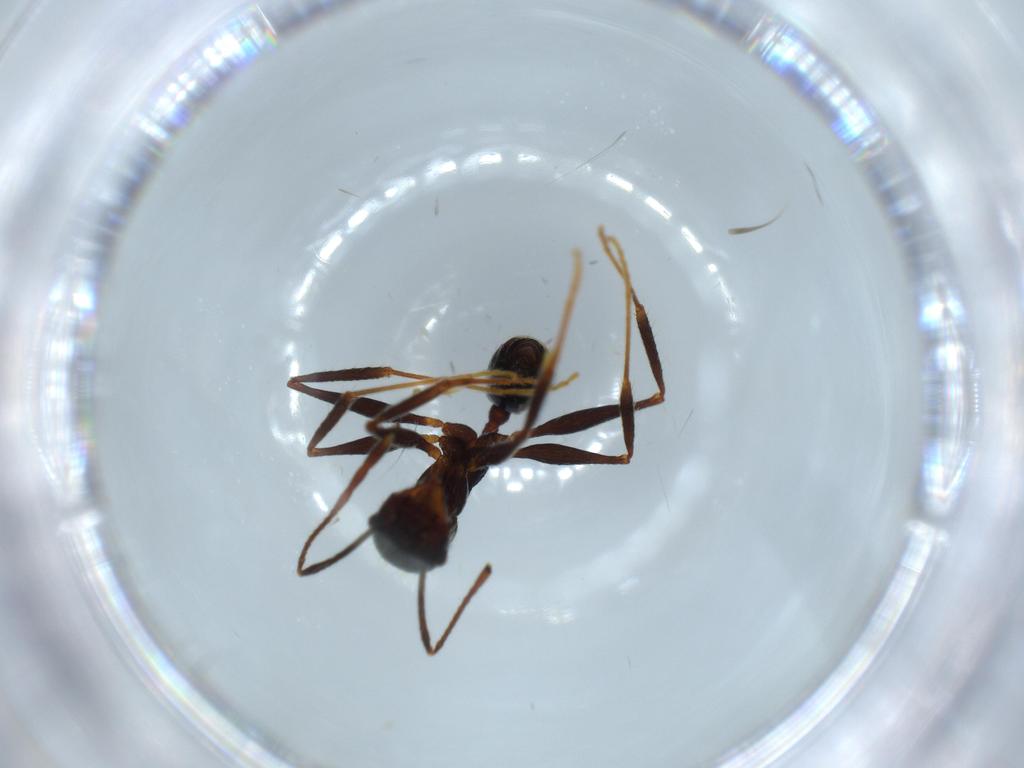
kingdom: Animalia
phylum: Arthropoda
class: Insecta
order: Hymenoptera
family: Formicidae
